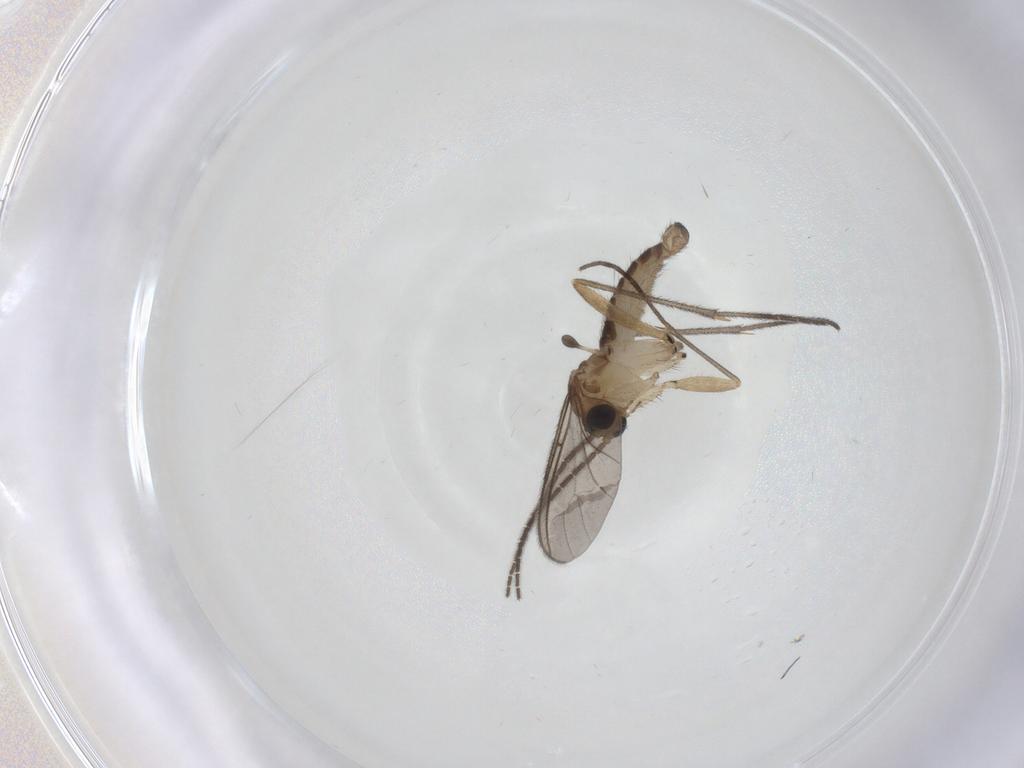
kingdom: Animalia
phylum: Arthropoda
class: Insecta
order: Diptera
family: Sciaridae
